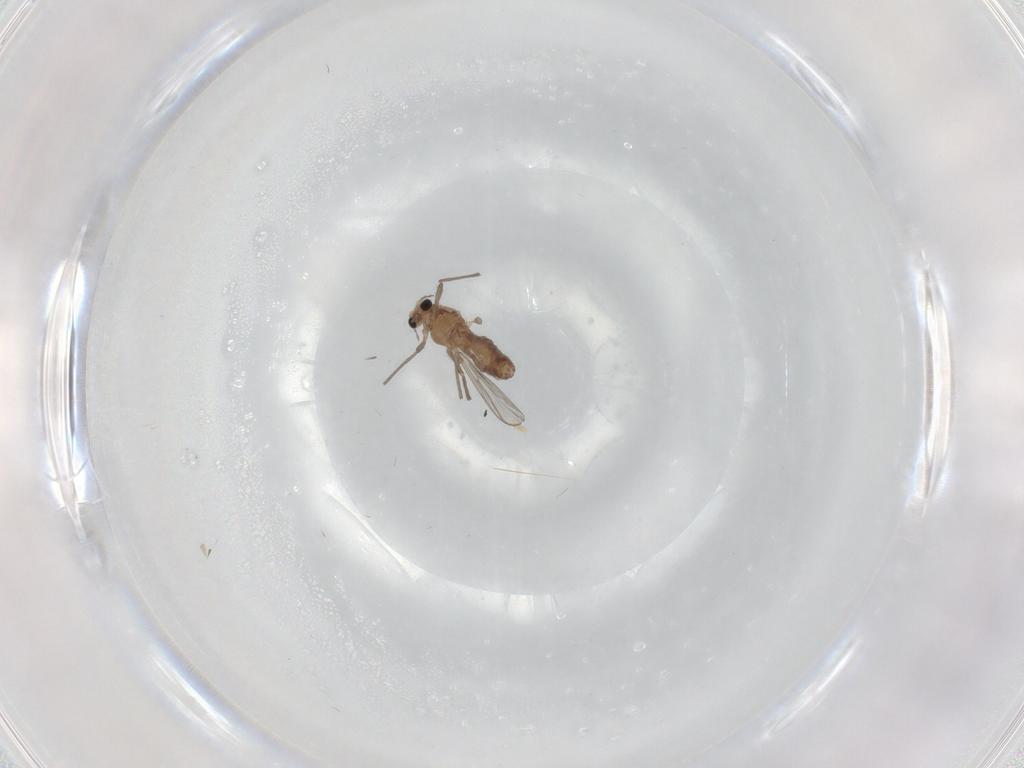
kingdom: Animalia
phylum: Arthropoda
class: Insecta
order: Diptera
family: Chironomidae
